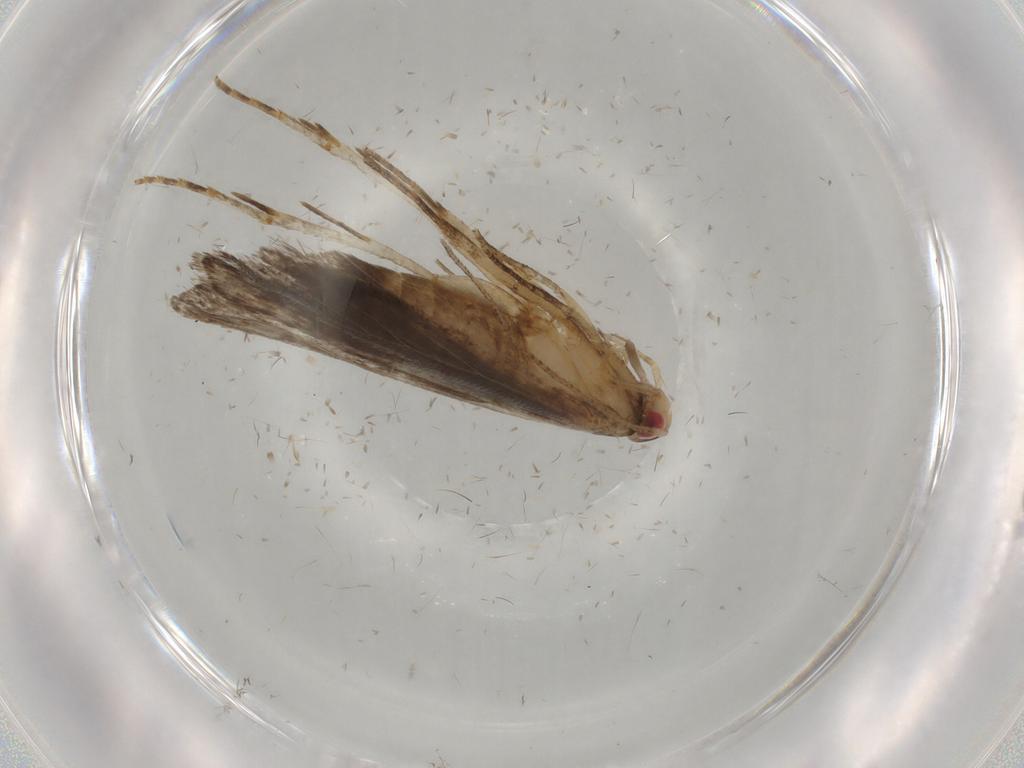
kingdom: Animalia
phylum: Arthropoda
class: Insecta
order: Lepidoptera
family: Gelechiidae
